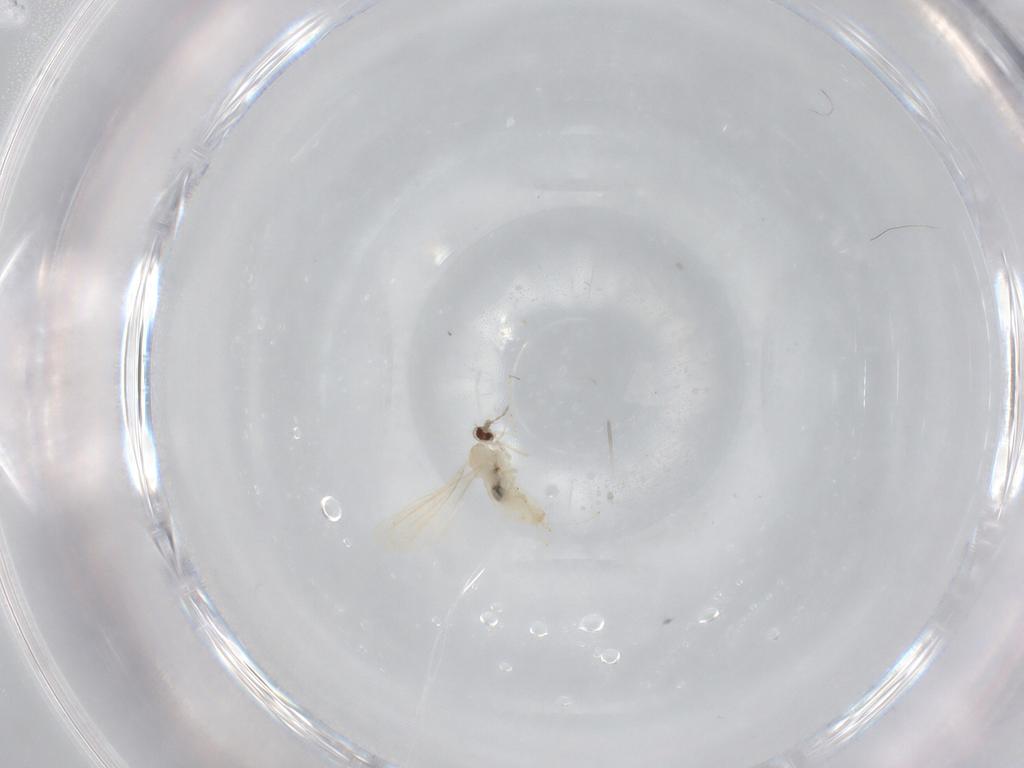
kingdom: Animalia
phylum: Arthropoda
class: Insecta
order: Diptera
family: Cecidomyiidae
